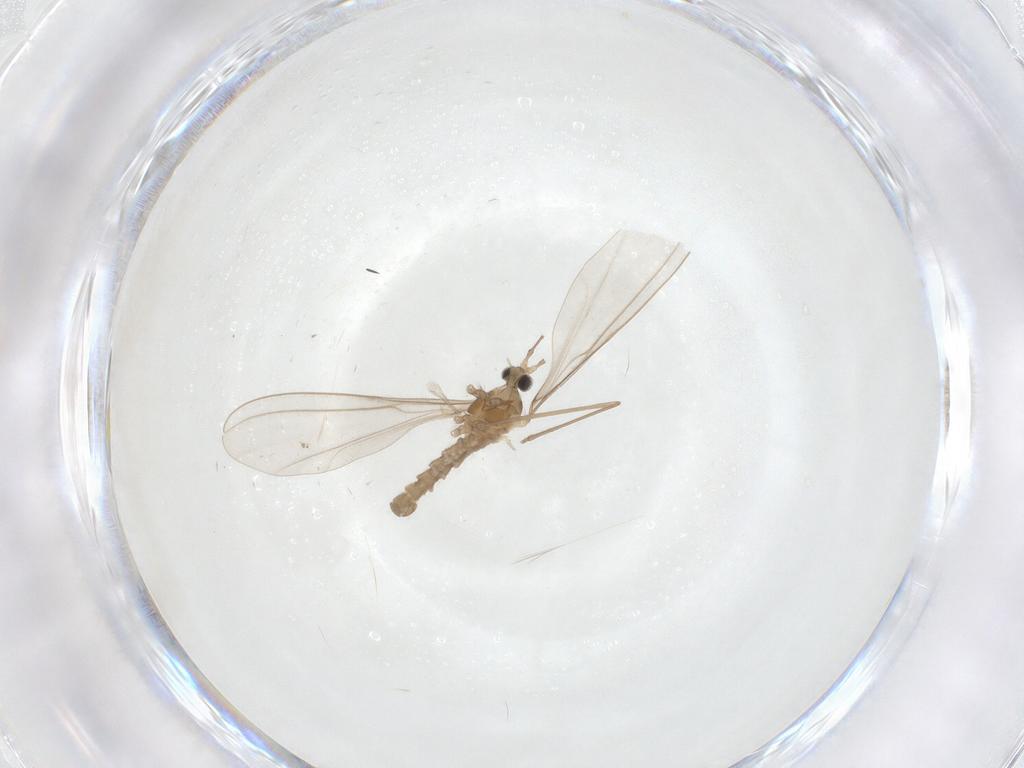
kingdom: Animalia
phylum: Arthropoda
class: Insecta
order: Diptera
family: Cecidomyiidae
